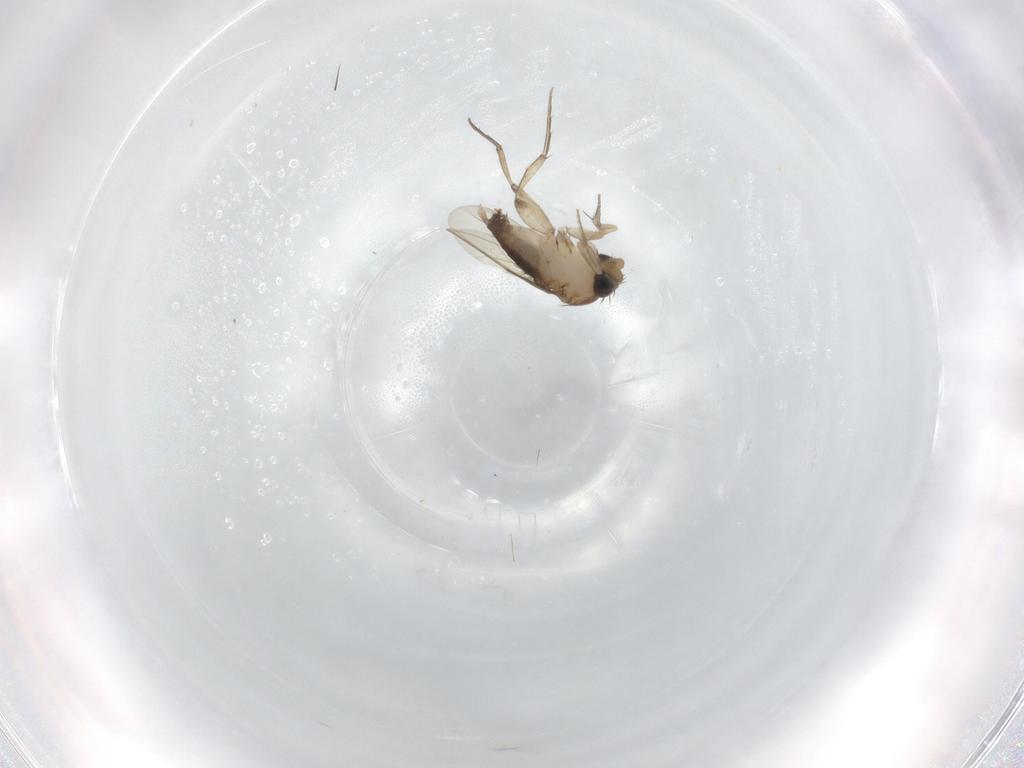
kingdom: Animalia
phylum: Arthropoda
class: Insecta
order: Diptera
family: Phoridae
